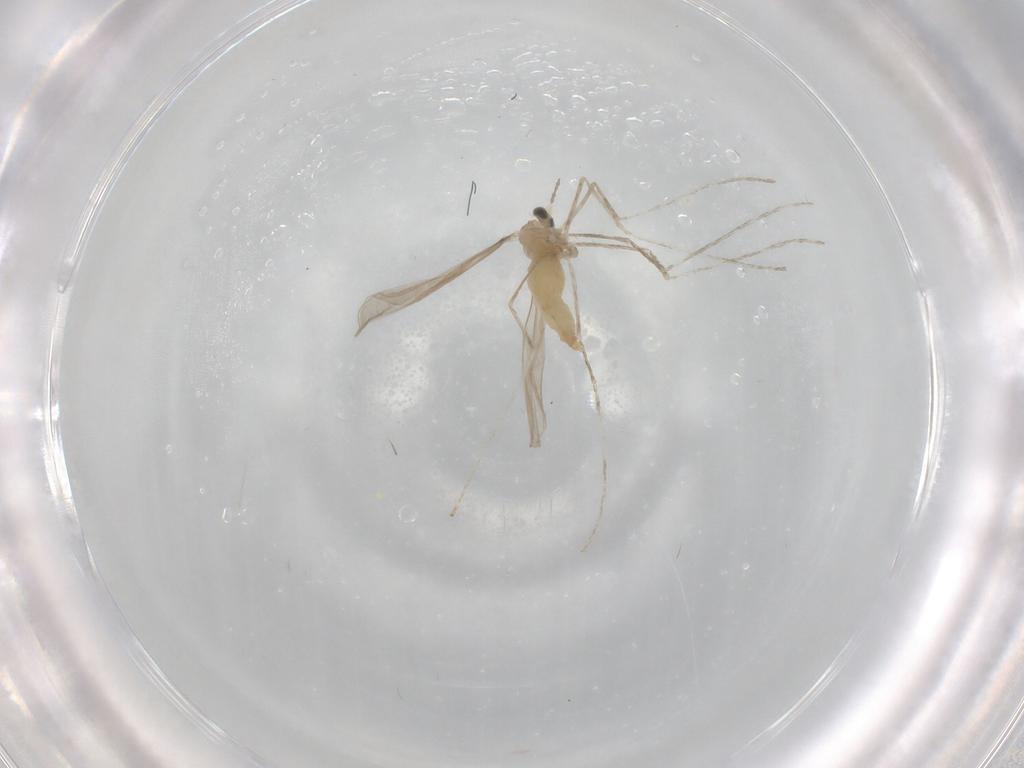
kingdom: Animalia
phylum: Arthropoda
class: Insecta
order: Diptera
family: Cecidomyiidae
